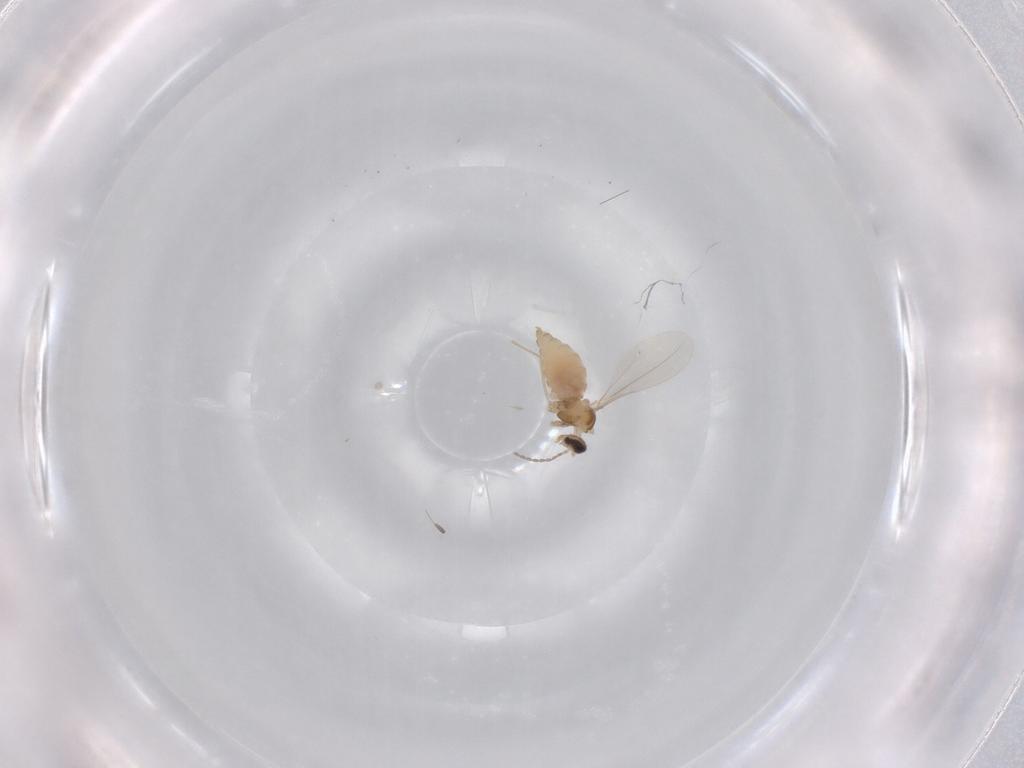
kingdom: Animalia
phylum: Arthropoda
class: Insecta
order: Diptera
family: Cecidomyiidae
